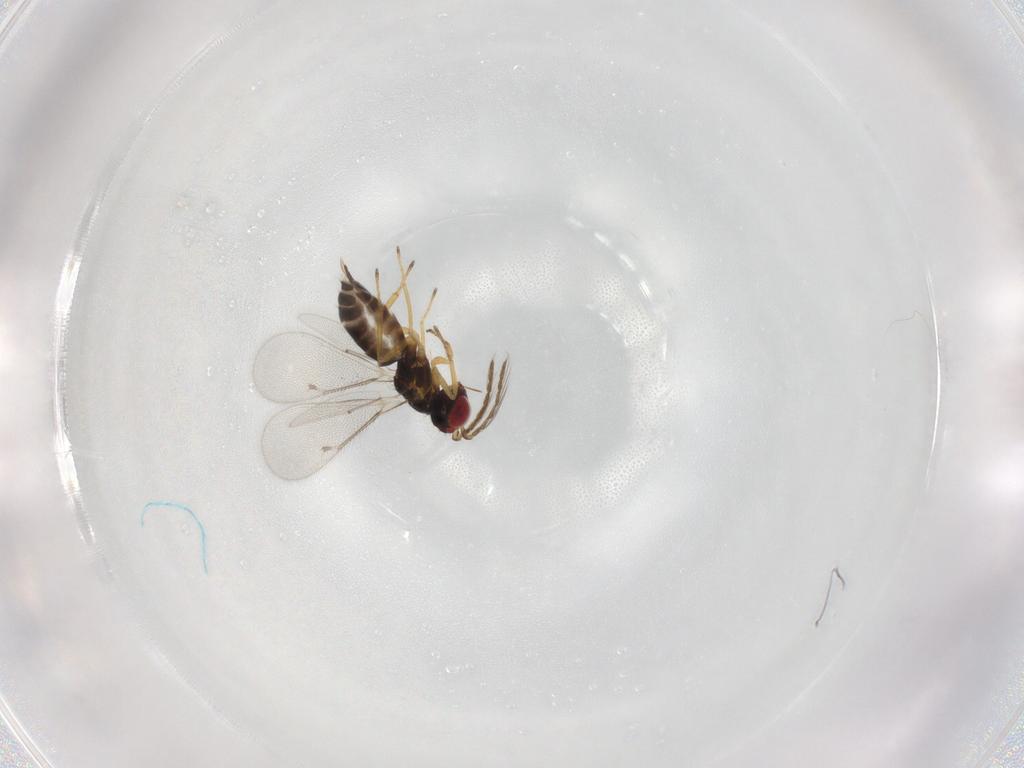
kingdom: Animalia
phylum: Arthropoda
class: Insecta
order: Hymenoptera
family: Eulophidae
